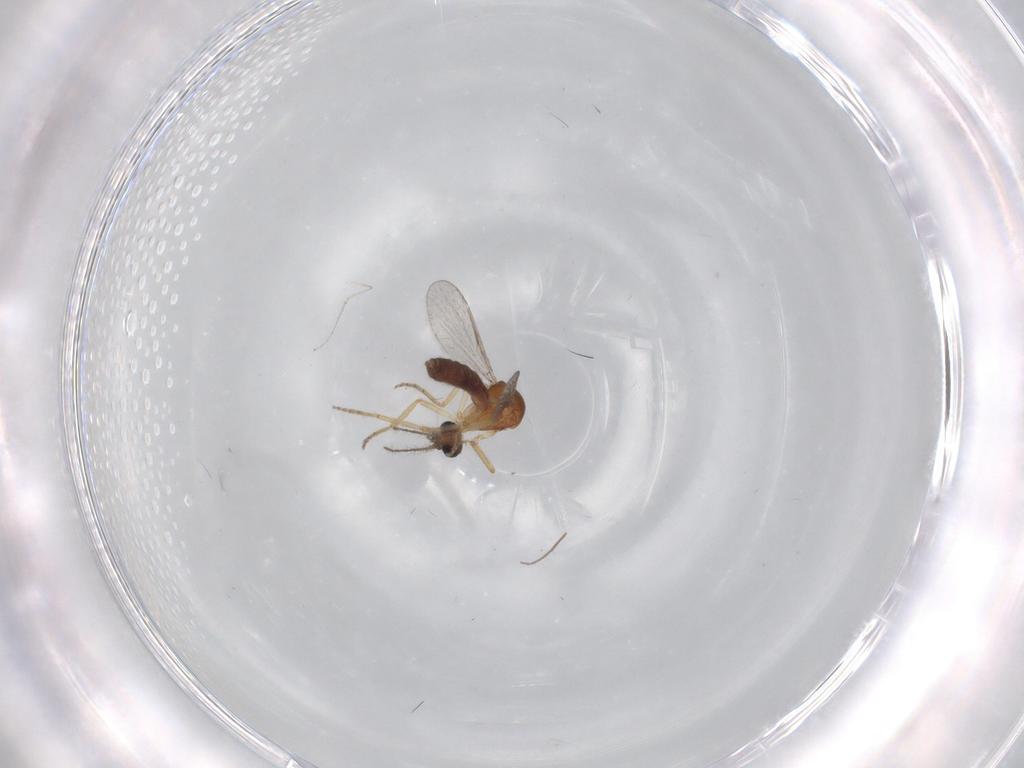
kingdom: Animalia
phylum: Arthropoda
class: Insecta
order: Diptera
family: Ceratopogonidae
